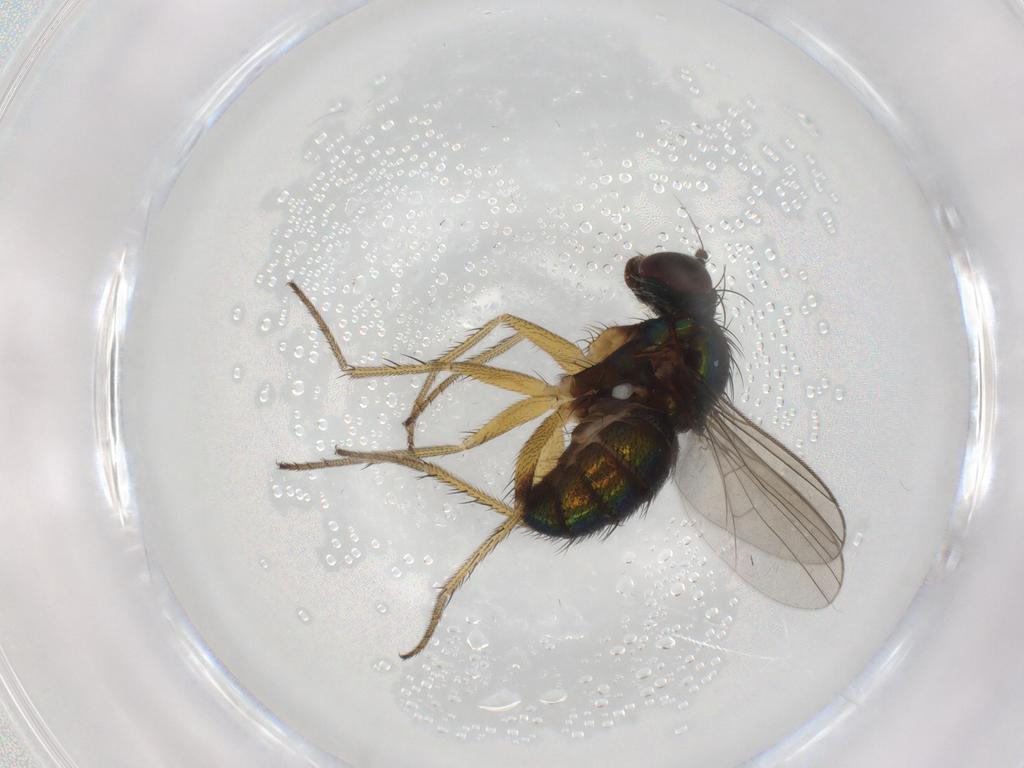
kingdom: Animalia
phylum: Arthropoda
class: Insecta
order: Diptera
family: Dolichopodidae
